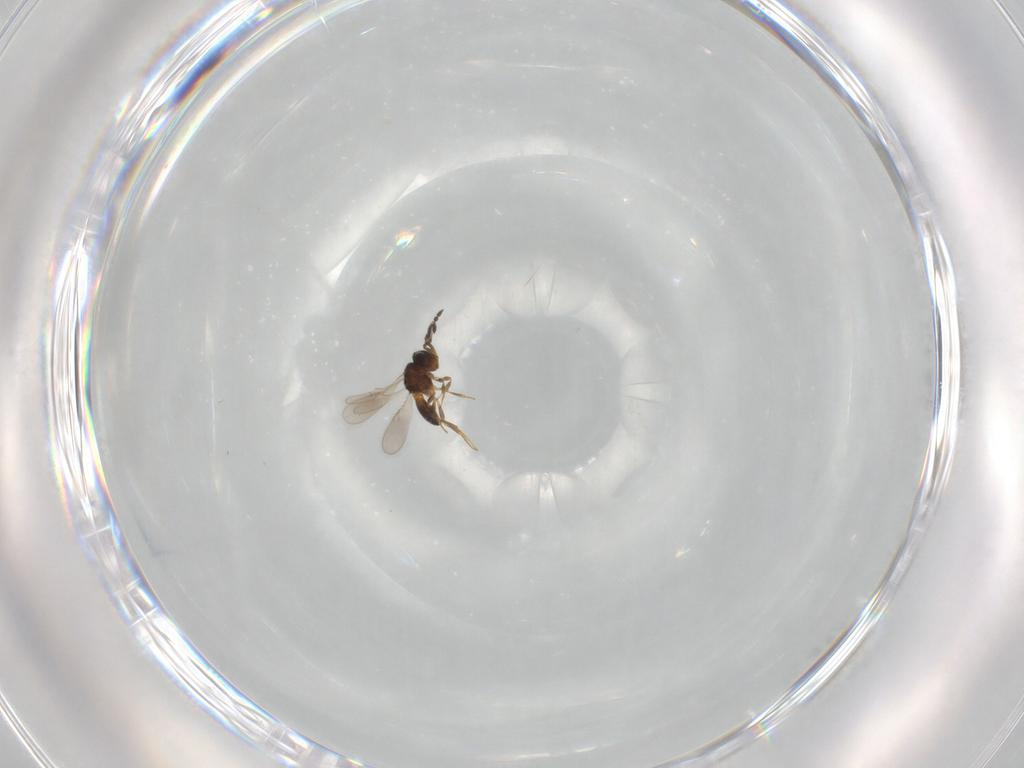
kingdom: Animalia
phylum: Arthropoda
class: Insecta
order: Hymenoptera
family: Scelionidae
